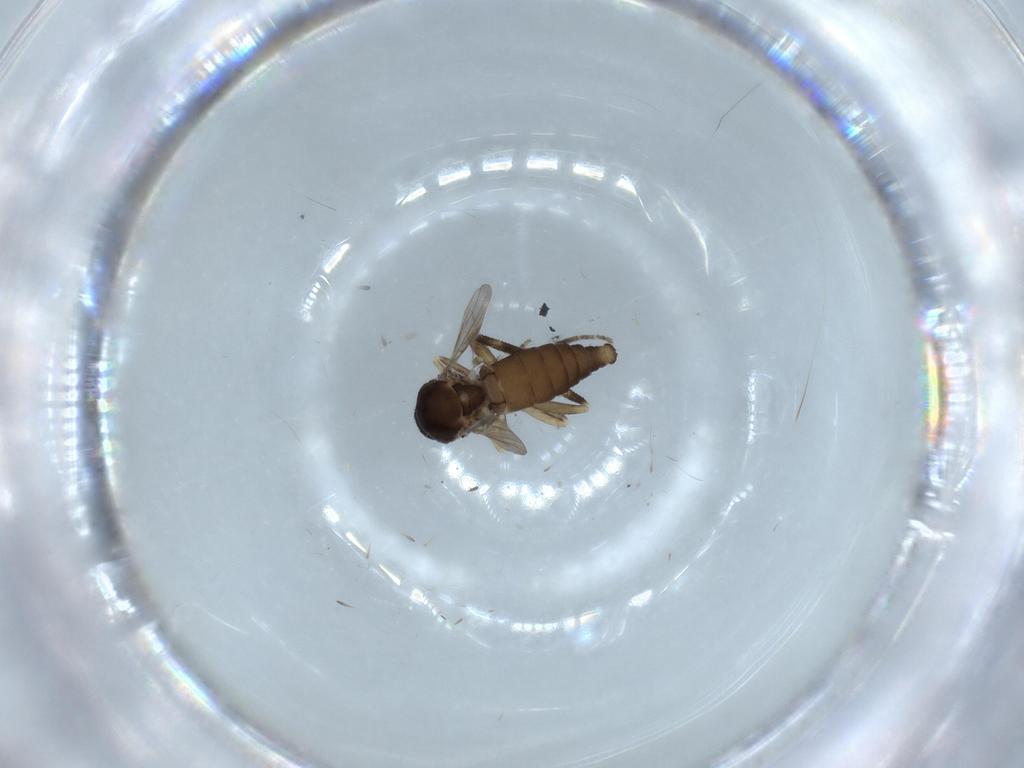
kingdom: Animalia
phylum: Arthropoda
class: Insecta
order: Diptera
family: Ceratopogonidae
